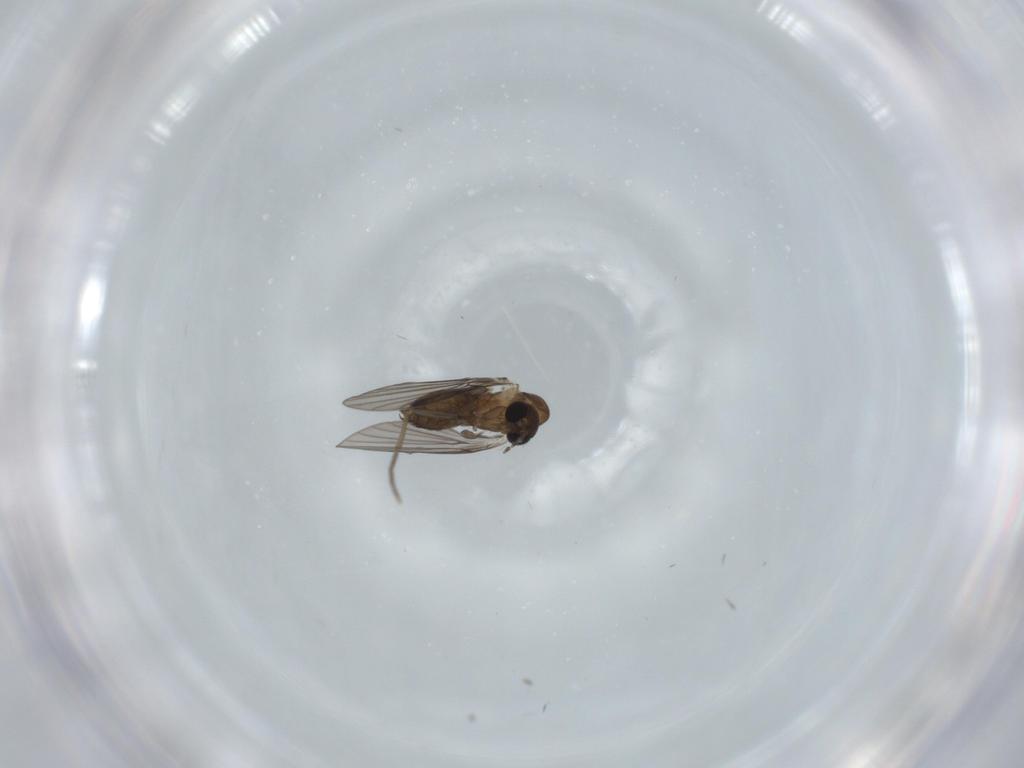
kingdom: Animalia
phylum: Arthropoda
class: Insecta
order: Diptera
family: Psychodidae
